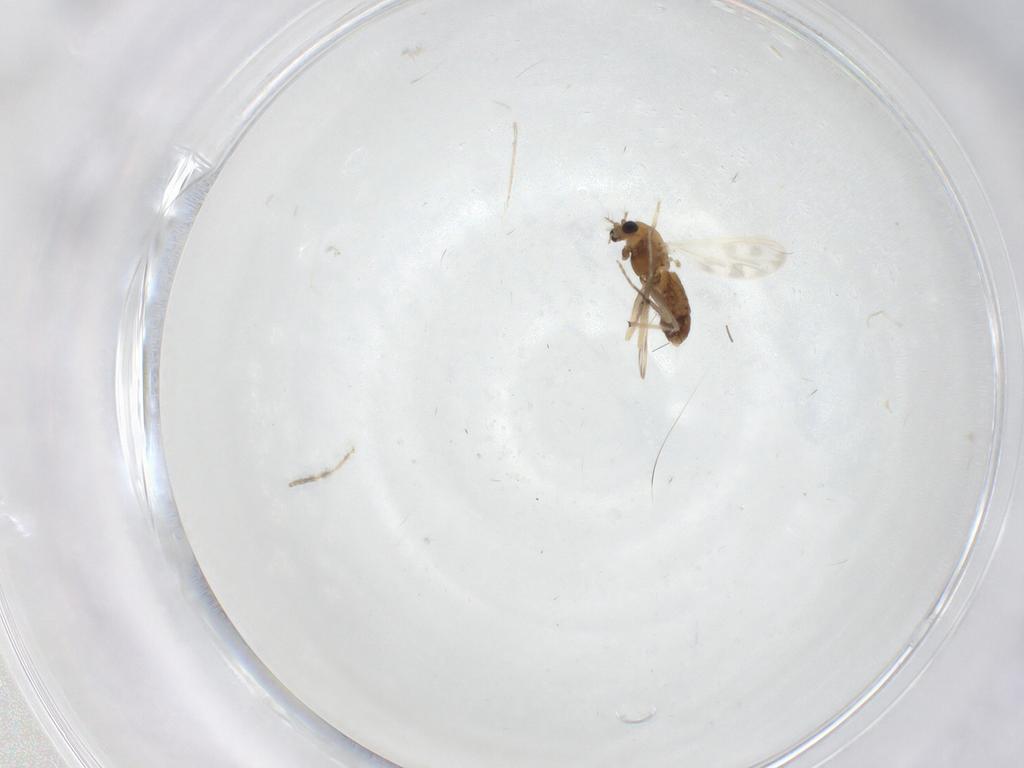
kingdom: Animalia
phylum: Arthropoda
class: Insecta
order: Diptera
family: Chironomidae
